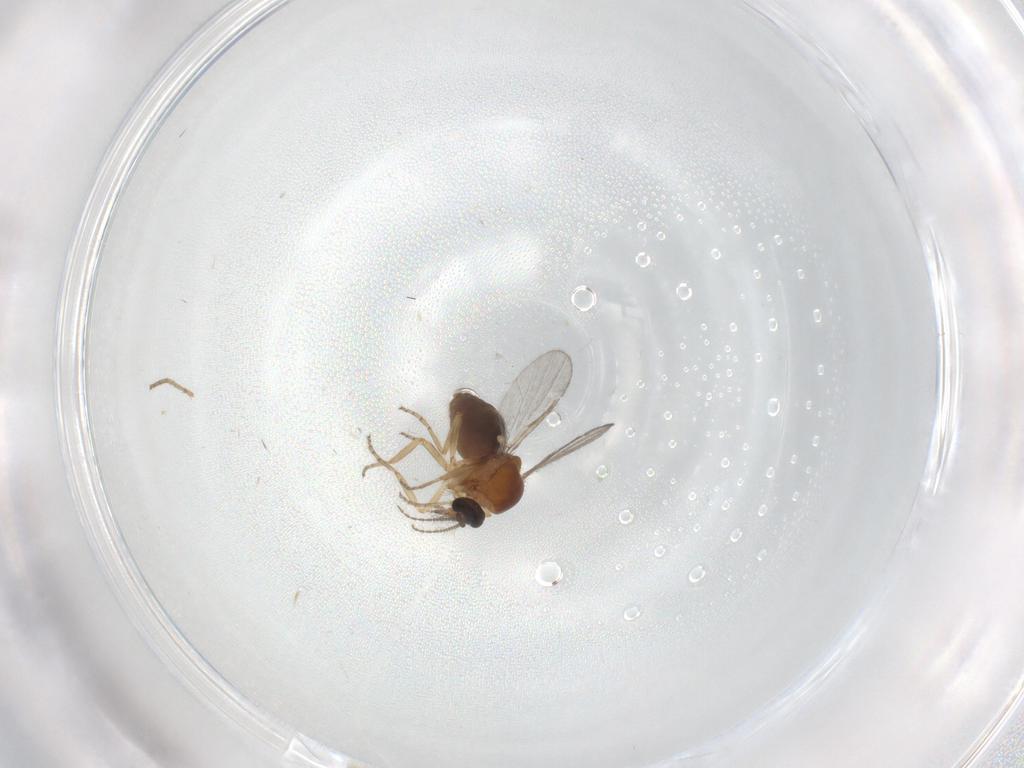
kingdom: Animalia
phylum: Arthropoda
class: Insecta
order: Diptera
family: Ceratopogonidae
